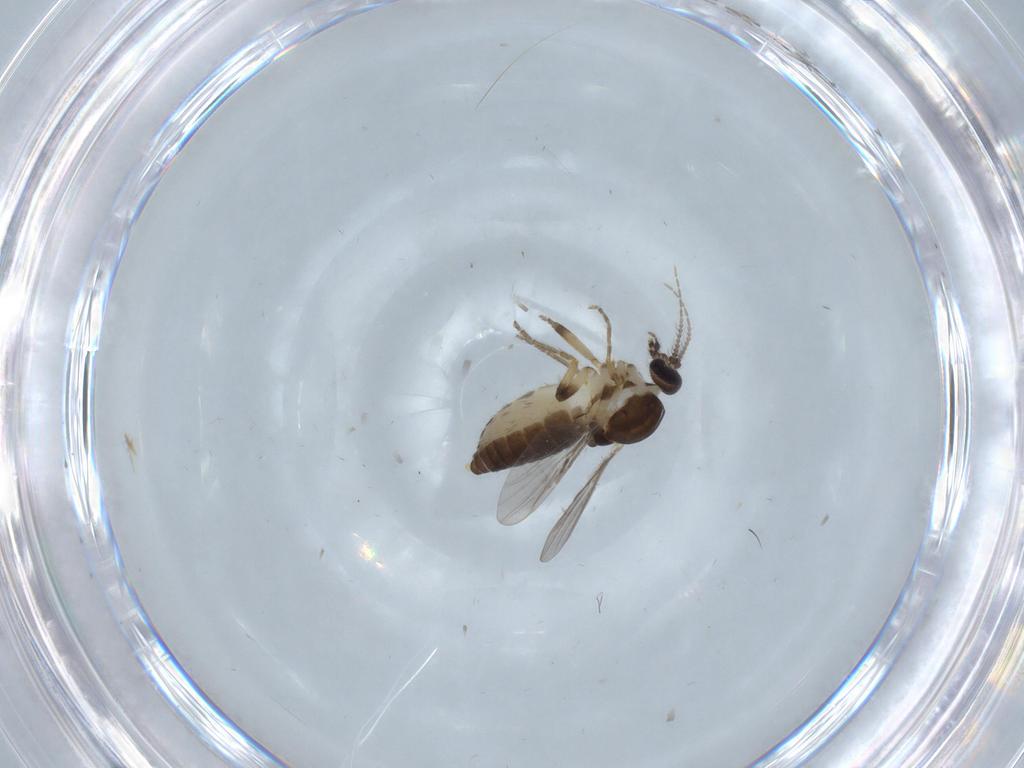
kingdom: Animalia
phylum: Arthropoda
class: Insecta
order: Diptera
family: Ceratopogonidae
